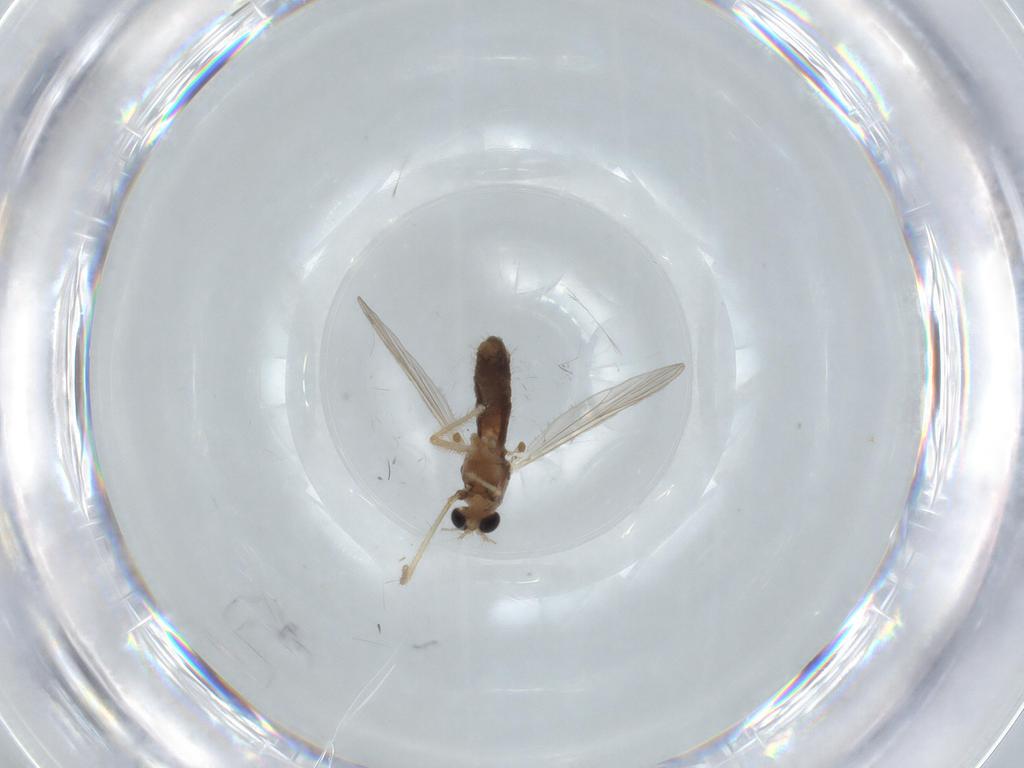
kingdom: Animalia
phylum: Arthropoda
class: Insecta
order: Diptera
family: Chironomidae
